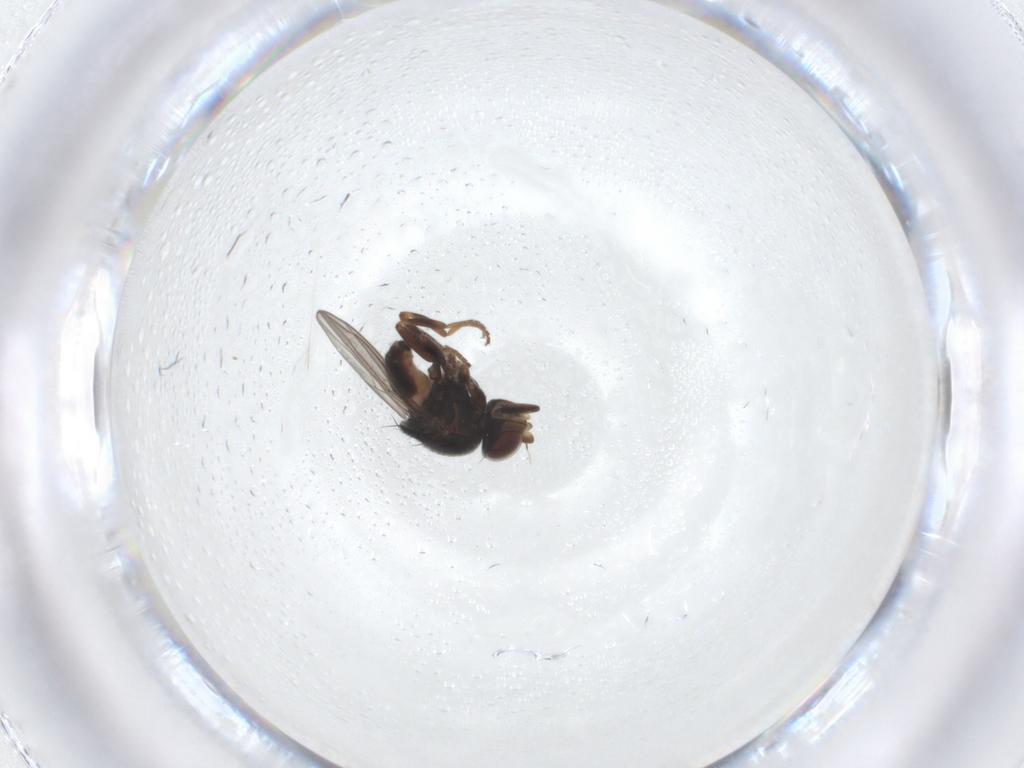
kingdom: Animalia
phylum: Arthropoda
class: Insecta
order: Diptera
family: Chloropidae
